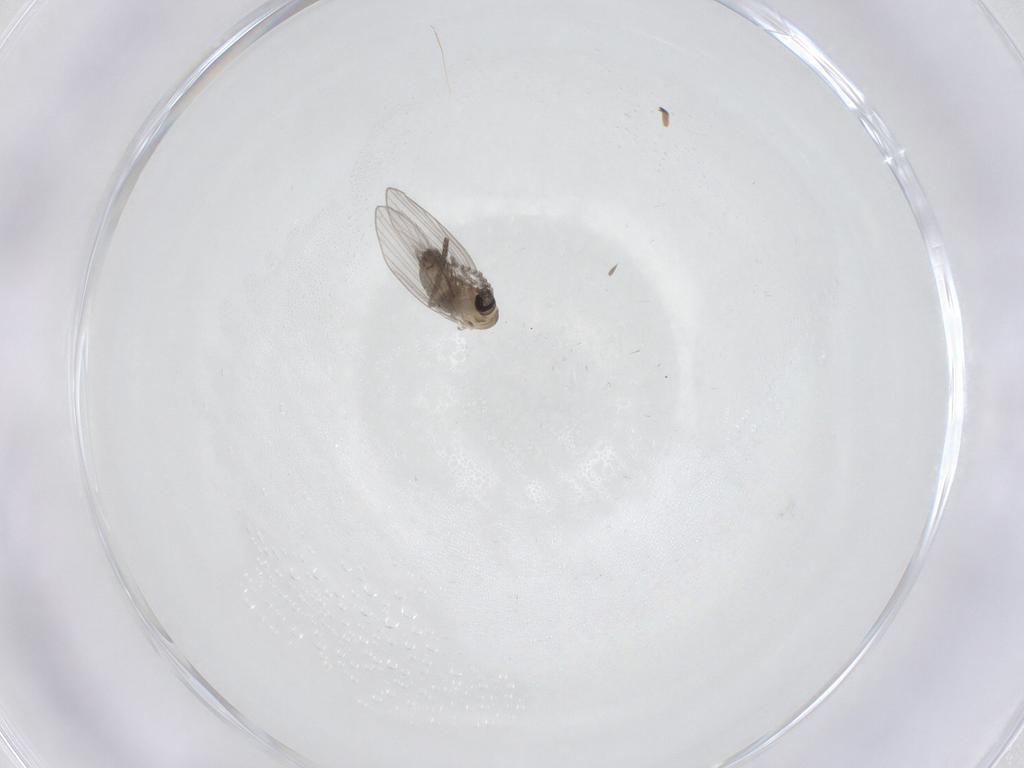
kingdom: Animalia
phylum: Arthropoda
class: Insecta
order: Diptera
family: Psychodidae
